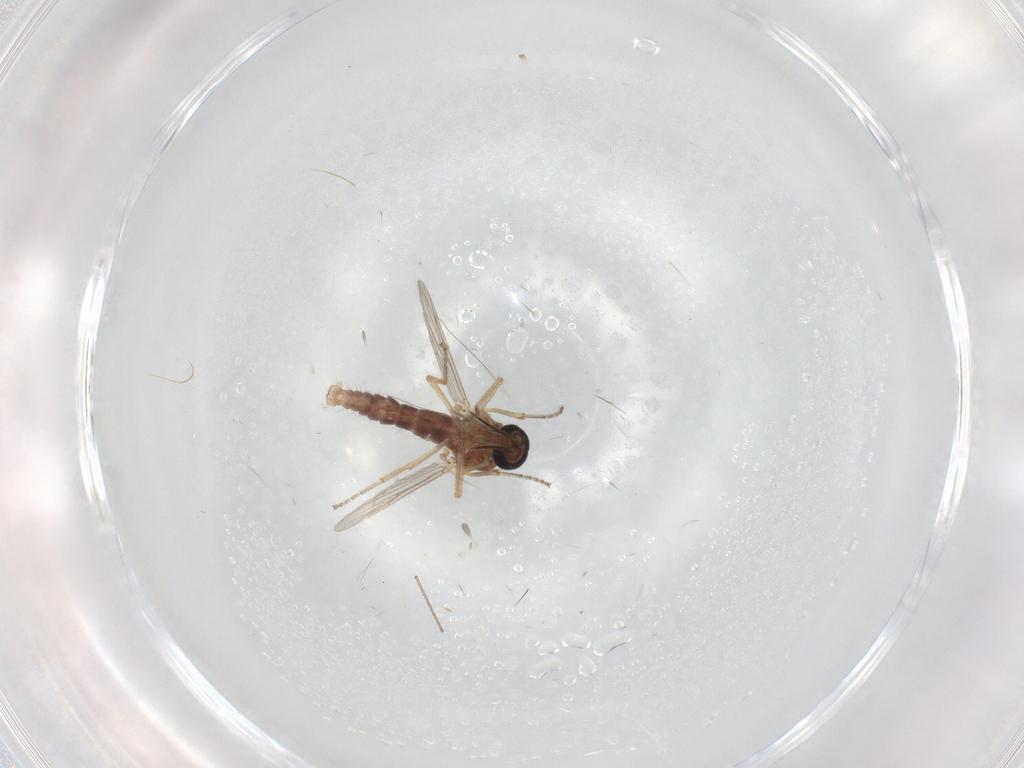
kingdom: Animalia
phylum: Arthropoda
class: Insecta
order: Diptera
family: Ceratopogonidae
